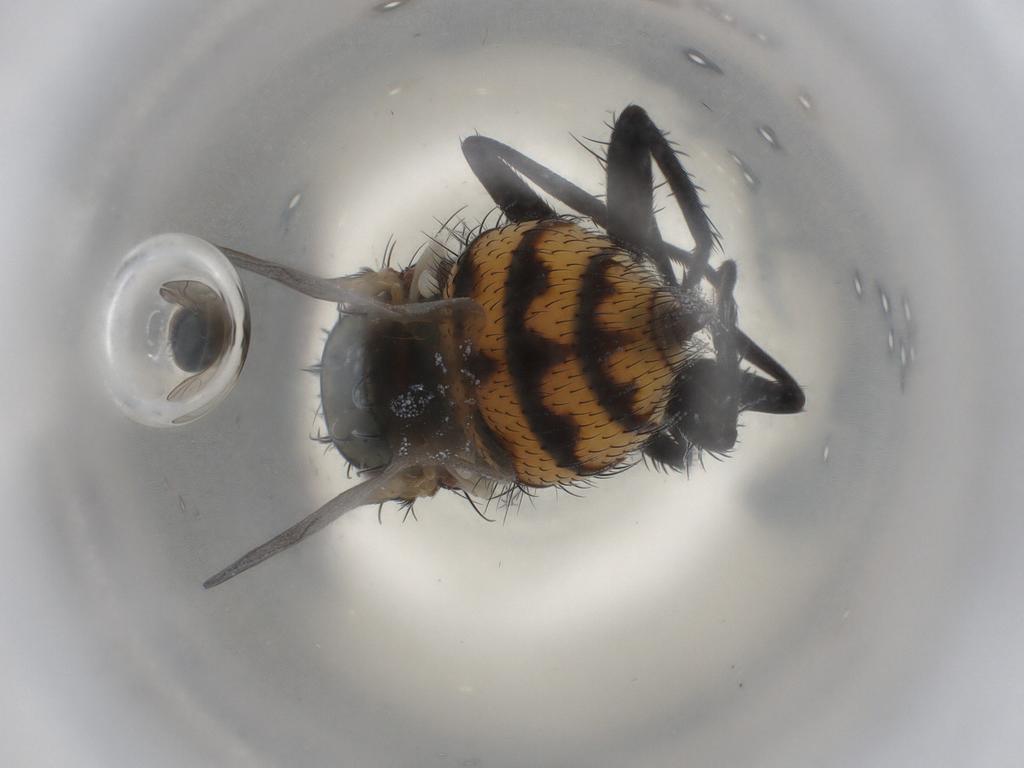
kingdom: Animalia
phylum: Arthropoda
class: Insecta
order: Diptera
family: Anthomyiidae
